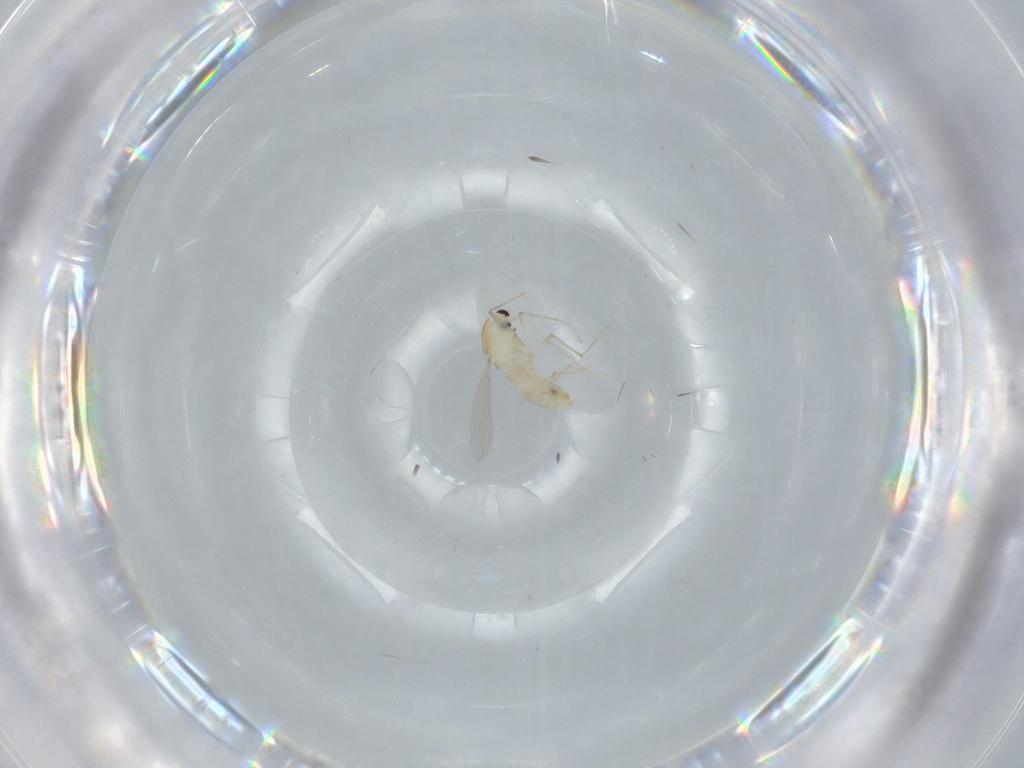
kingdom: Animalia
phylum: Arthropoda
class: Insecta
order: Diptera
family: Chironomidae
